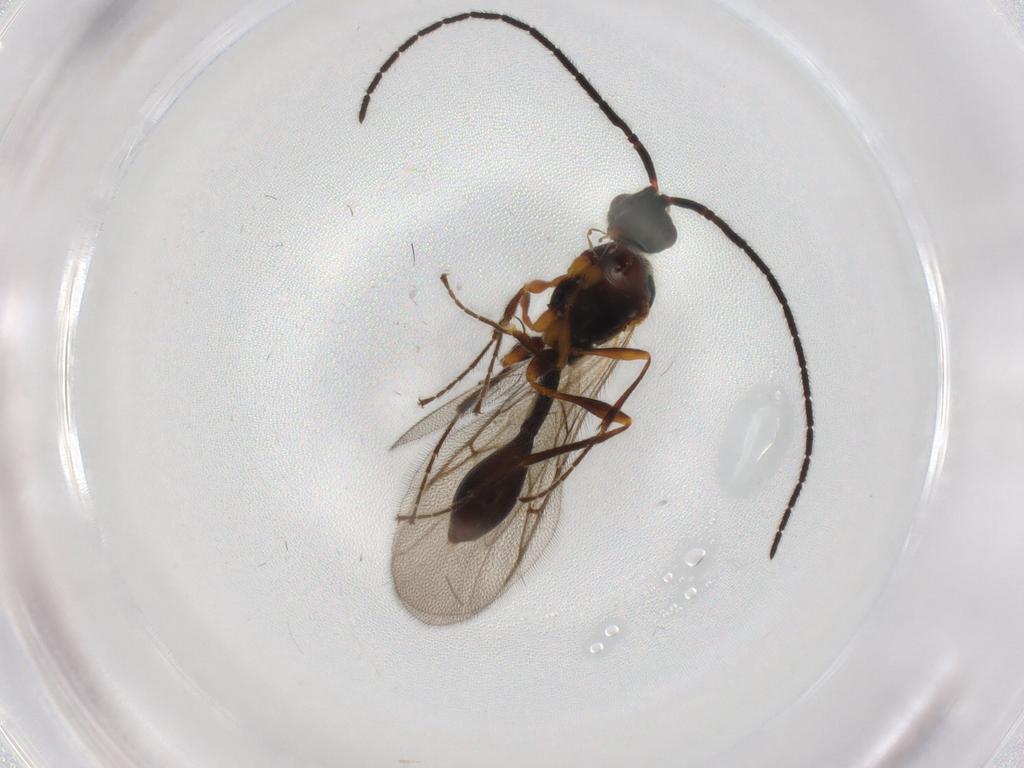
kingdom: Animalia
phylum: Arthropoda
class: Insecta
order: Hymenoptera
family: Diapriidae
